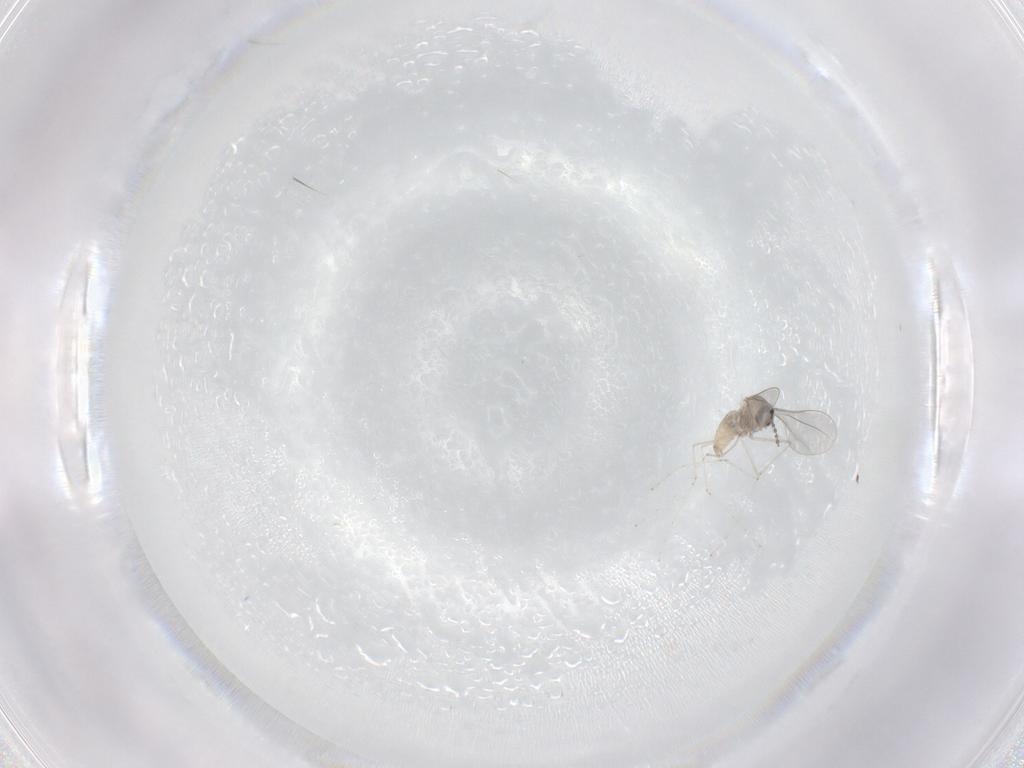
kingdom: Animalia
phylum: Arthropoda
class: Insecta
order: Diptera
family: Cecidomyiidae
